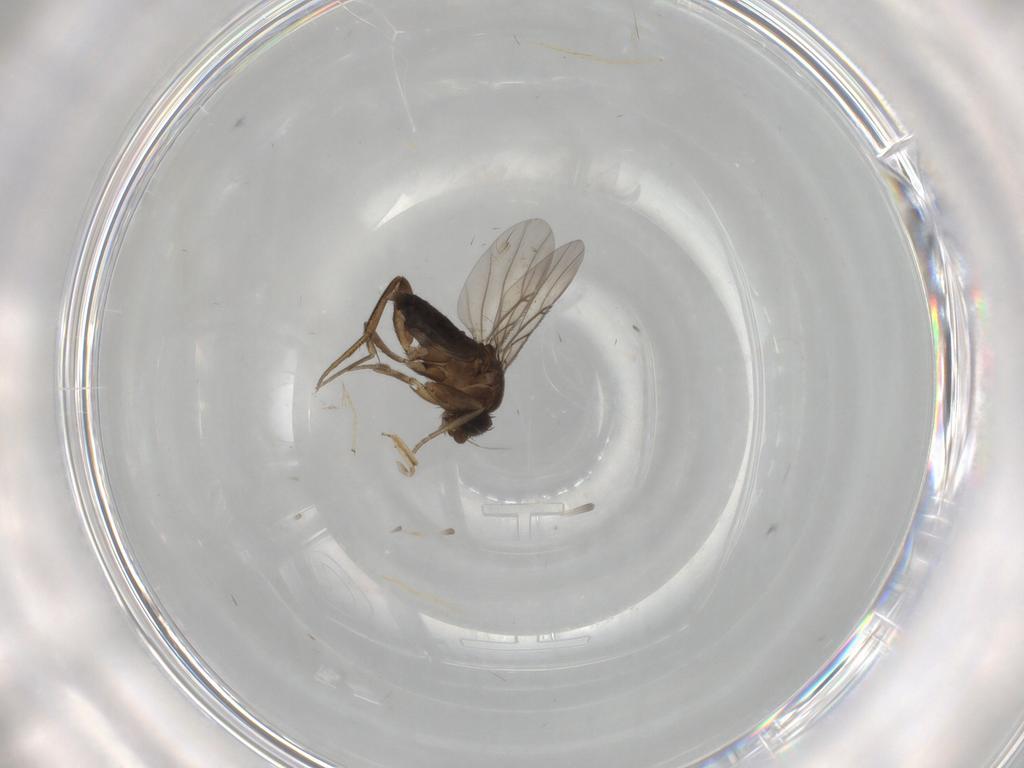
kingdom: Animalia
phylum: Arthropoda
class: Insecta
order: Diptera
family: Phoridae
